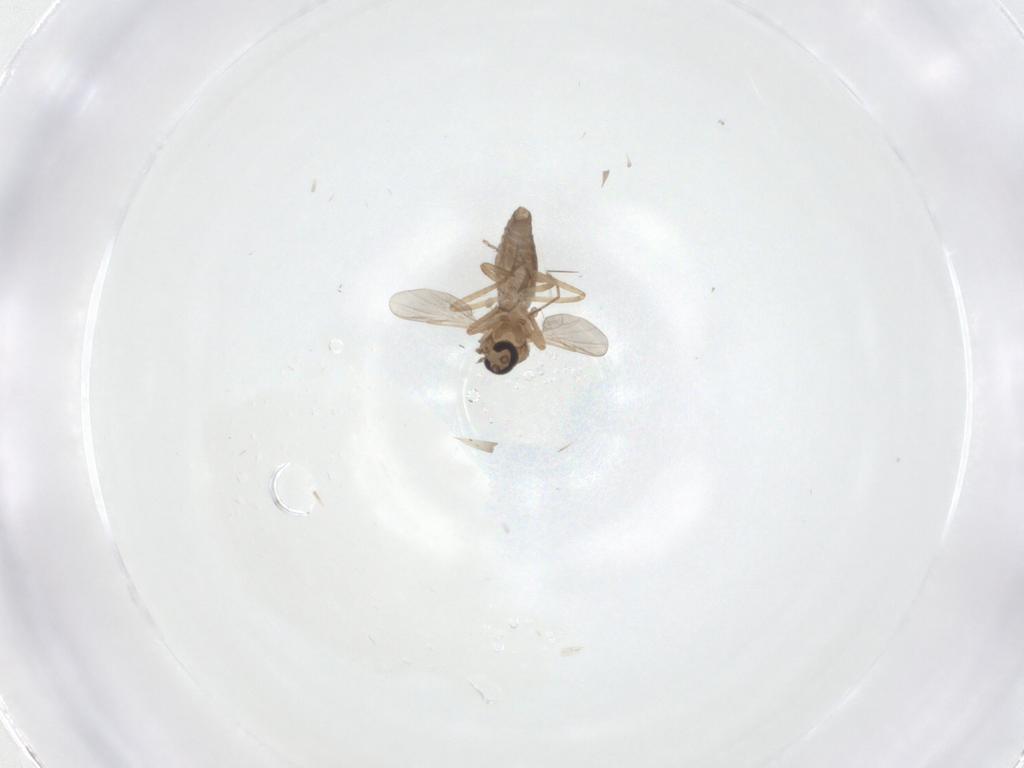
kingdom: Animalia
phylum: Arthropoda
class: Insecta
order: Diptera
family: Ceratopogonidae
